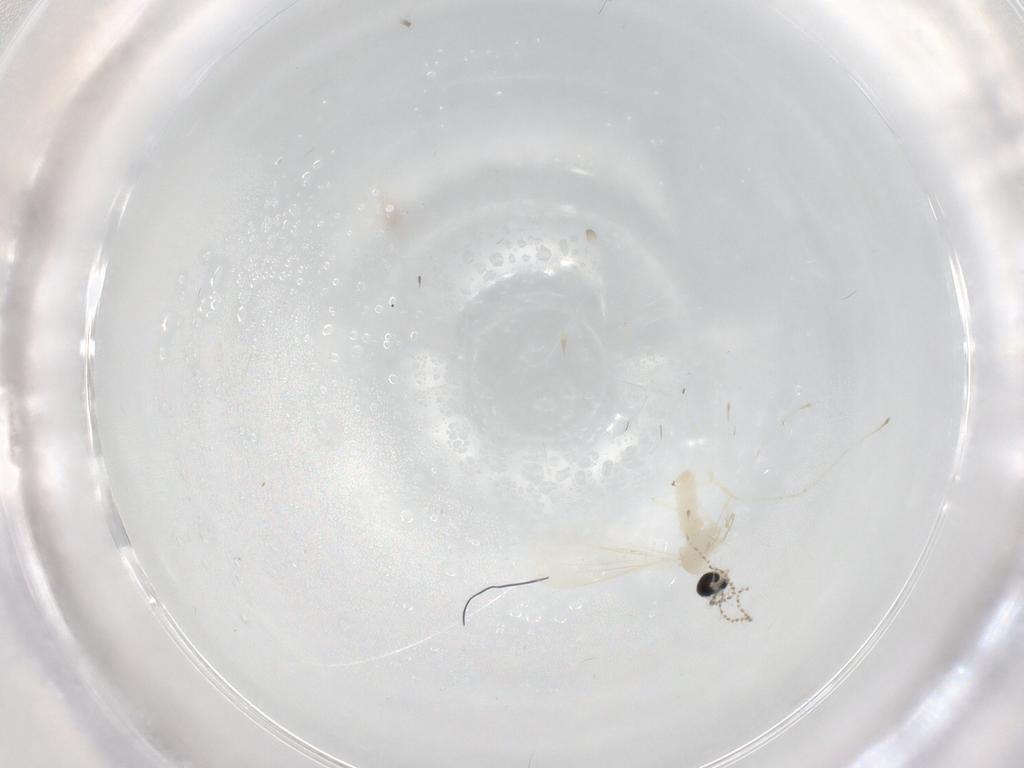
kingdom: Animalia
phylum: Arthropoda
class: Insecta
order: Diptera
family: Cecidomyiidae
